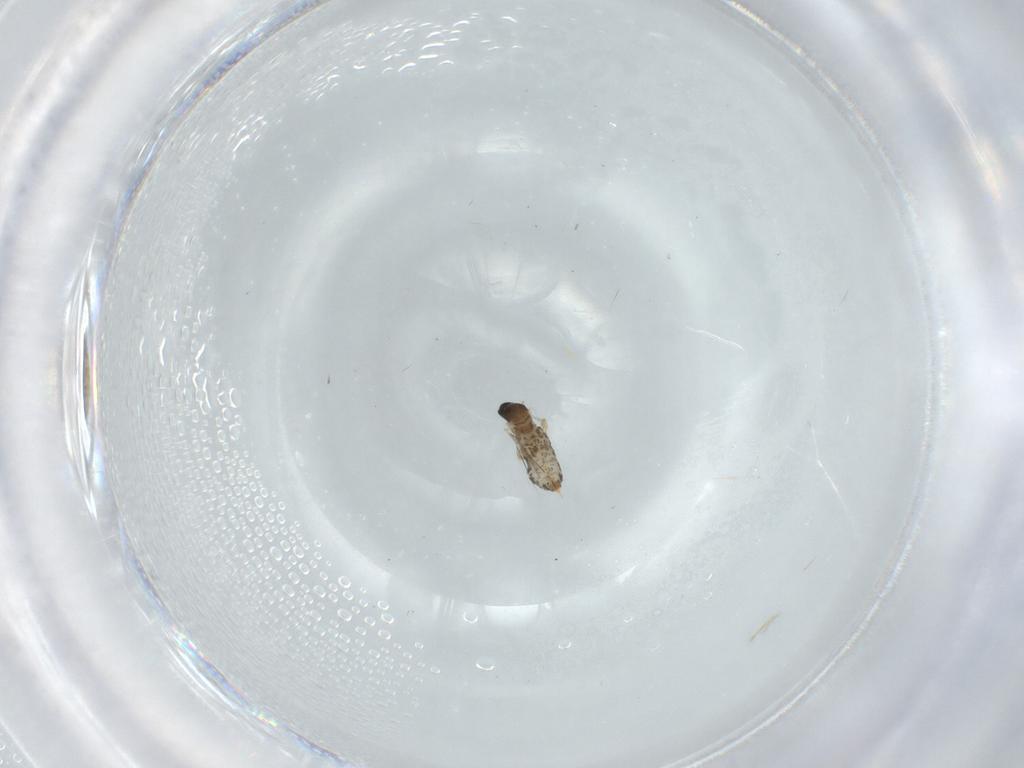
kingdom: Animalia
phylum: Arthropoda
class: Insecta
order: Diptera
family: Cecidomyiidae
